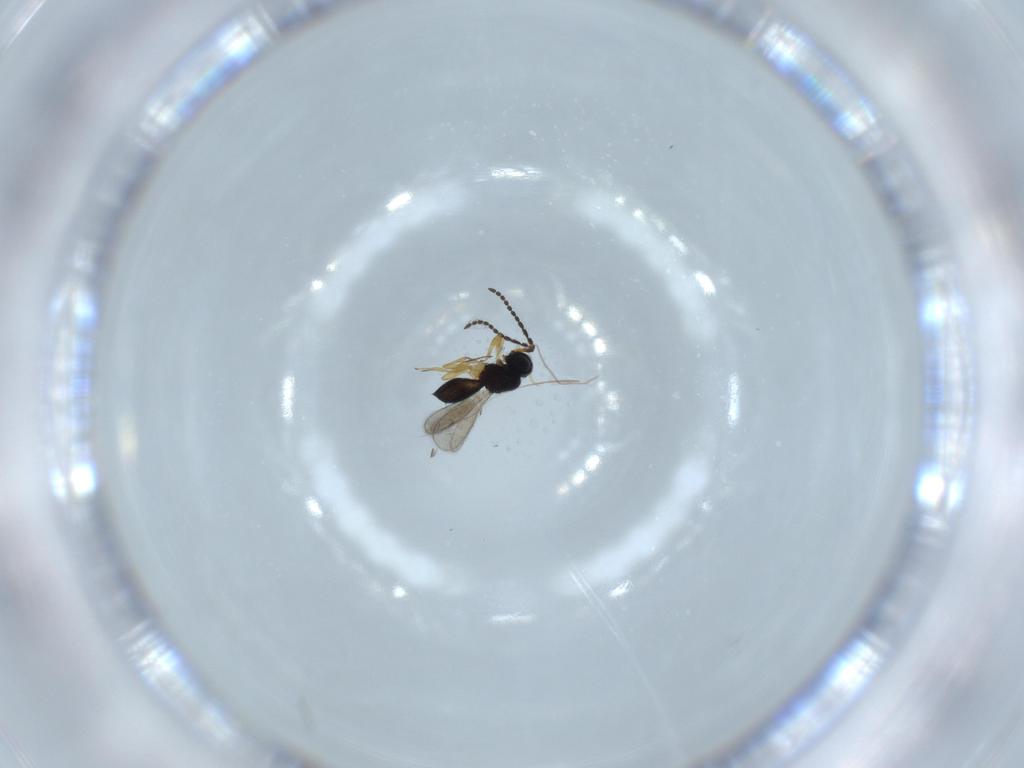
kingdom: Animalia
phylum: Arthropoda
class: Insecta
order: Hymenoptera
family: Scelionidae
